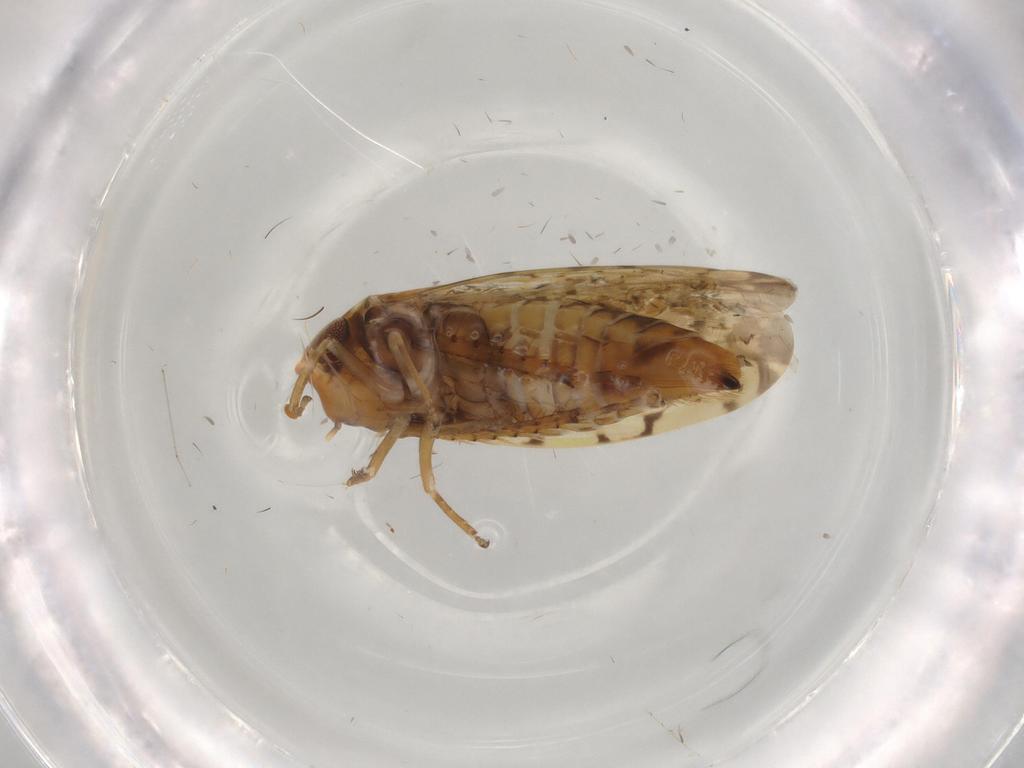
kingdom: Animalia
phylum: Arthropoda
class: Insecta
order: Hemiptera
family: Cicadellidae
